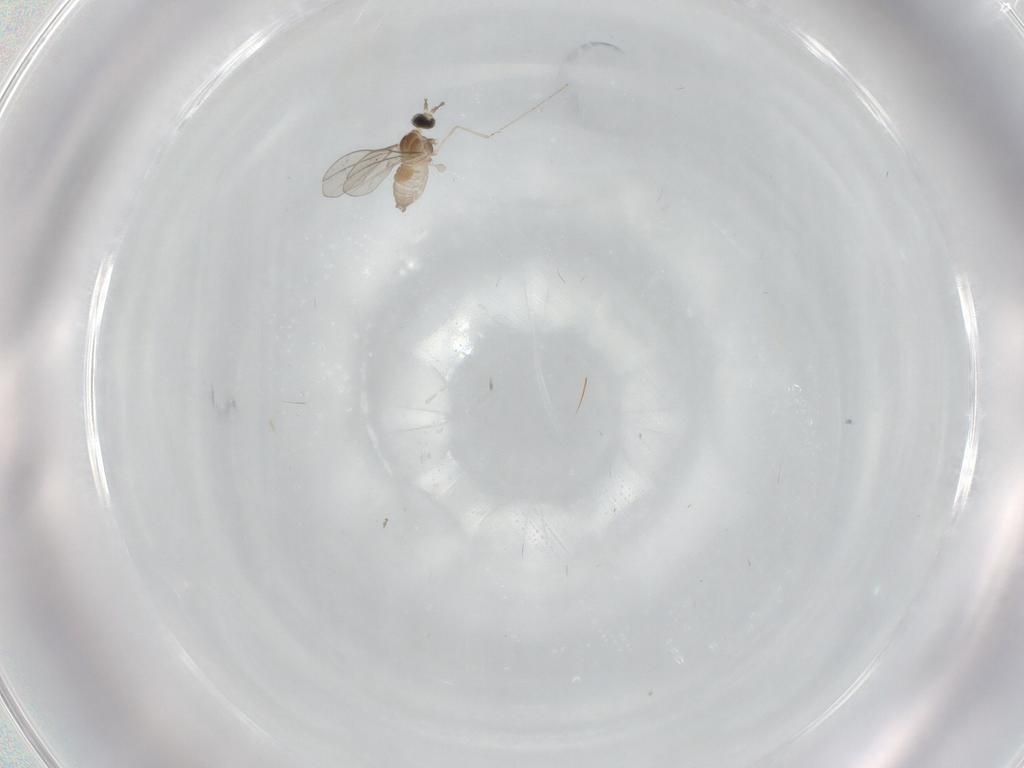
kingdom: Animalia
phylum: Arthropoda
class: Insecta
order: Diptera
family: Cecidomyiidae
